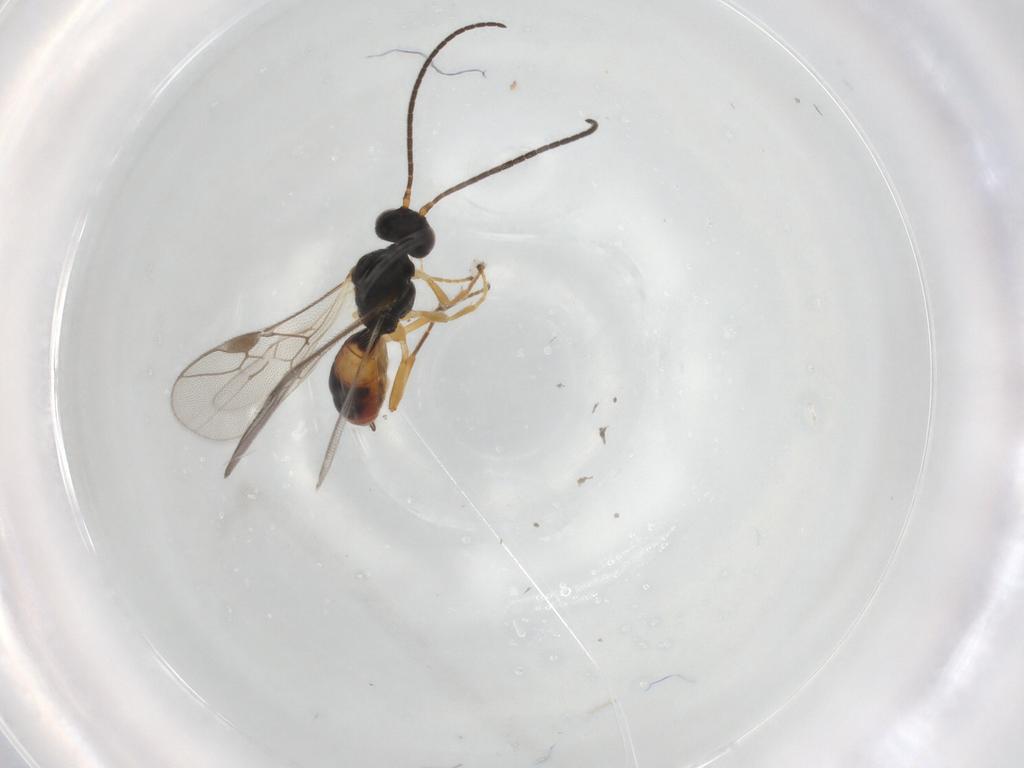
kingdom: Animalia
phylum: Arthropoda
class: Insecta
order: Hymenoptera
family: Braconidae
